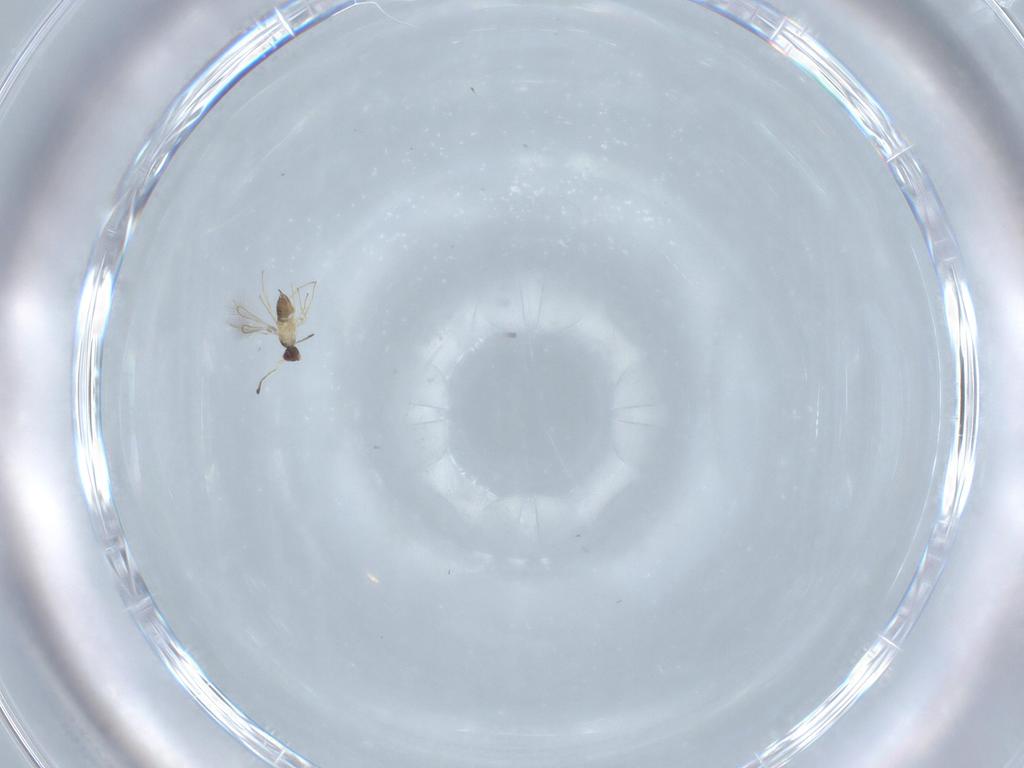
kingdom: Animalia
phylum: Arthropoda
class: Insecta
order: Hymenoptera
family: Mymaridae
